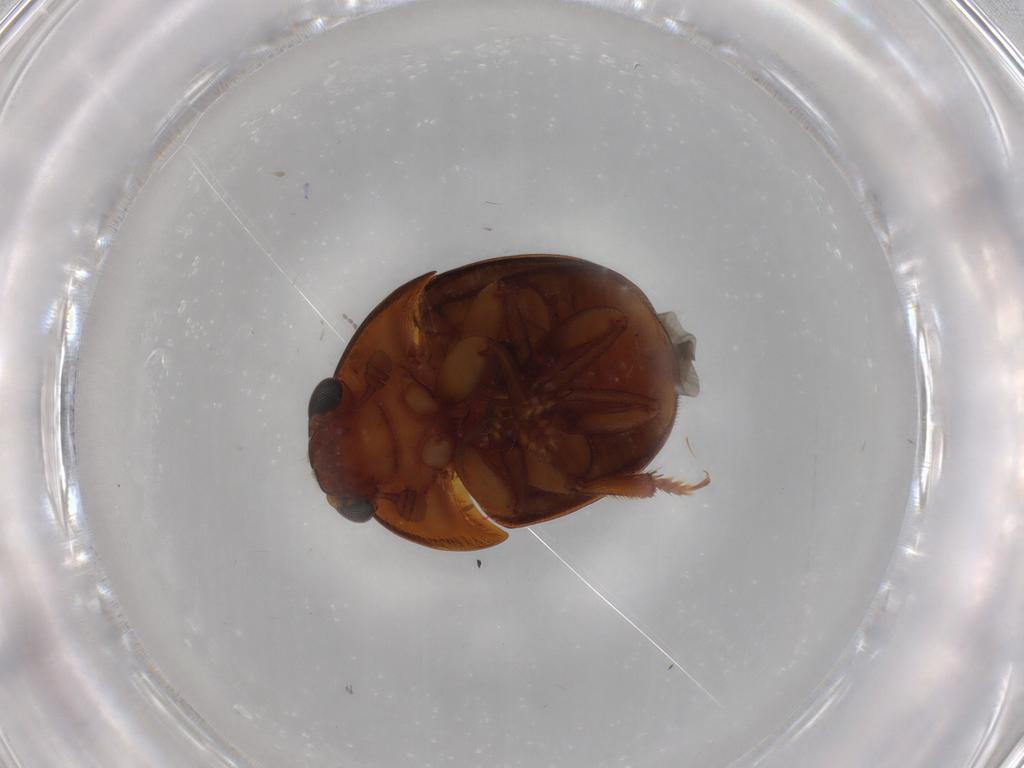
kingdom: Animalia
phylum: Arthropoda
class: Insecta
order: Coleoptera
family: Nitidulidae
